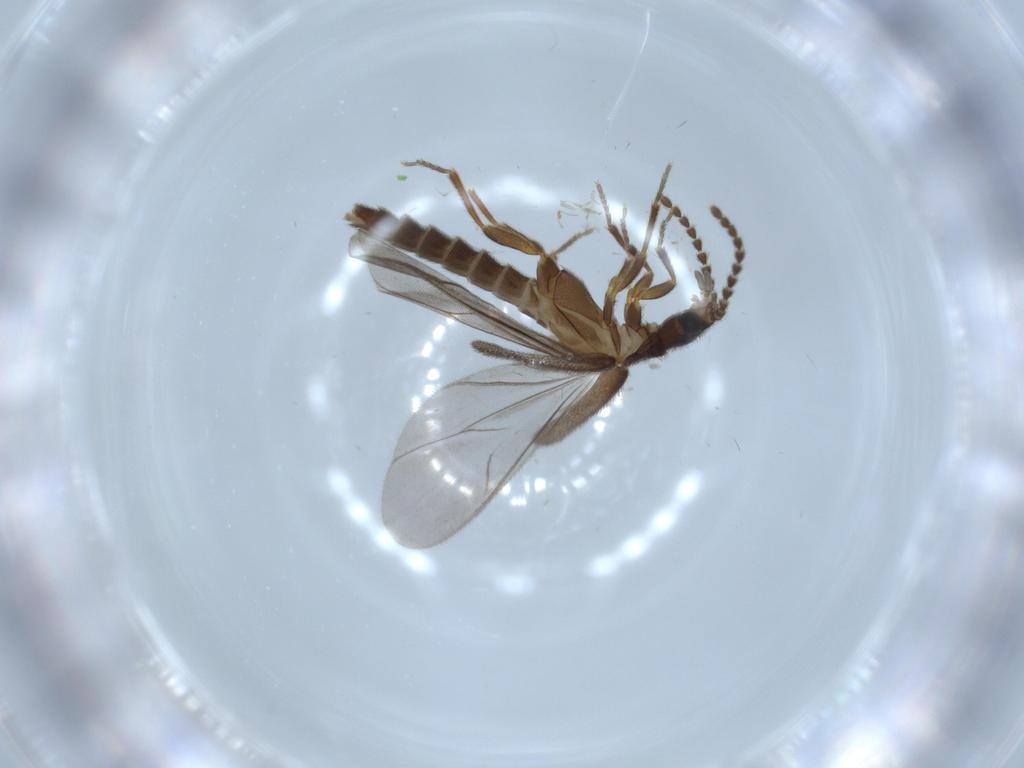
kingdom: Animalia
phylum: Arthropoda
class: Insecta
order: Coleoptera
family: Omethidae
